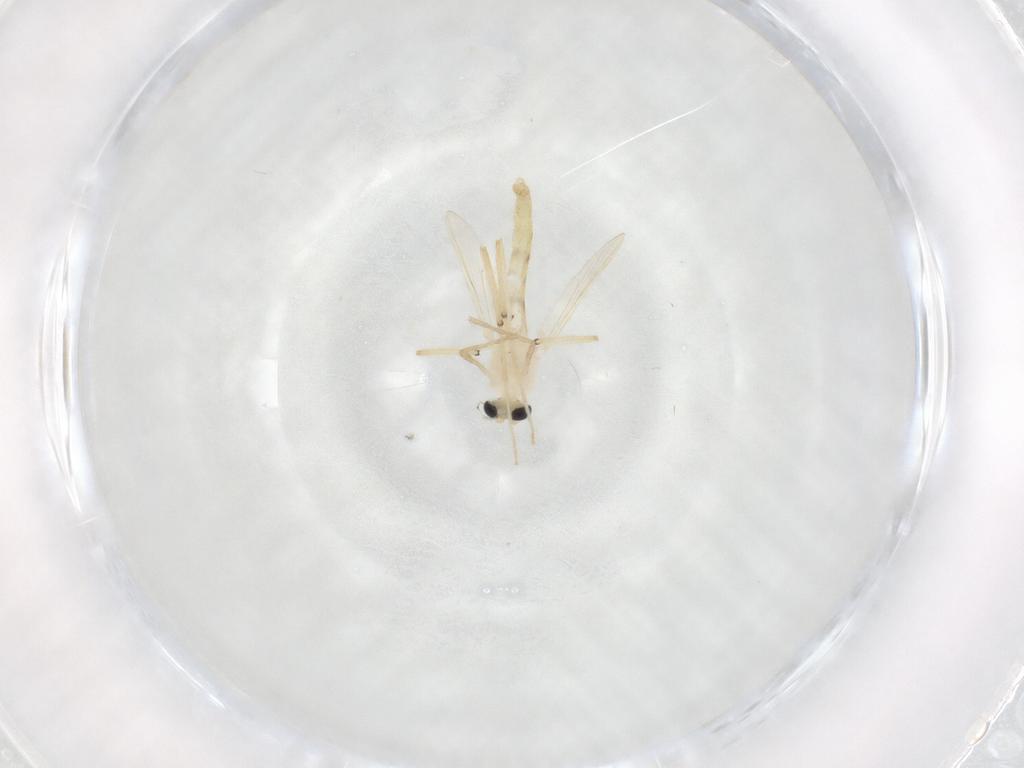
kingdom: Animalia
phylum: Arthropoda
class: Insecta
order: Diptera
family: Chironomidae
